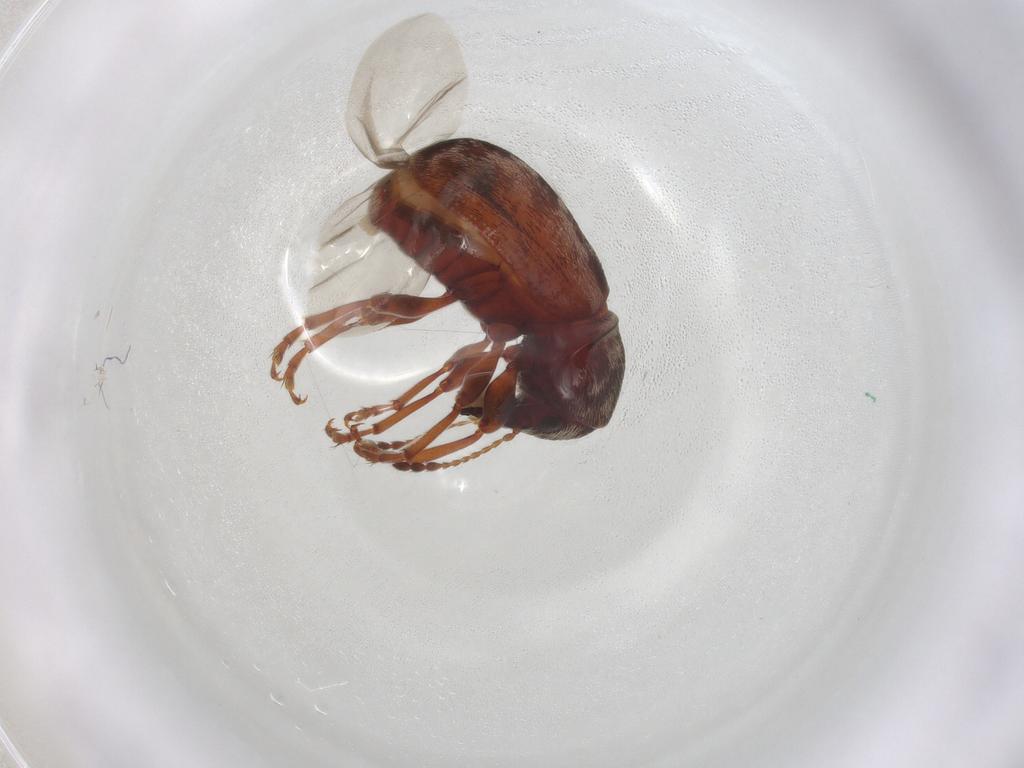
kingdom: Animalia
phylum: Arthropoda
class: Insecta
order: Coleoptera
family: Anthribidae
